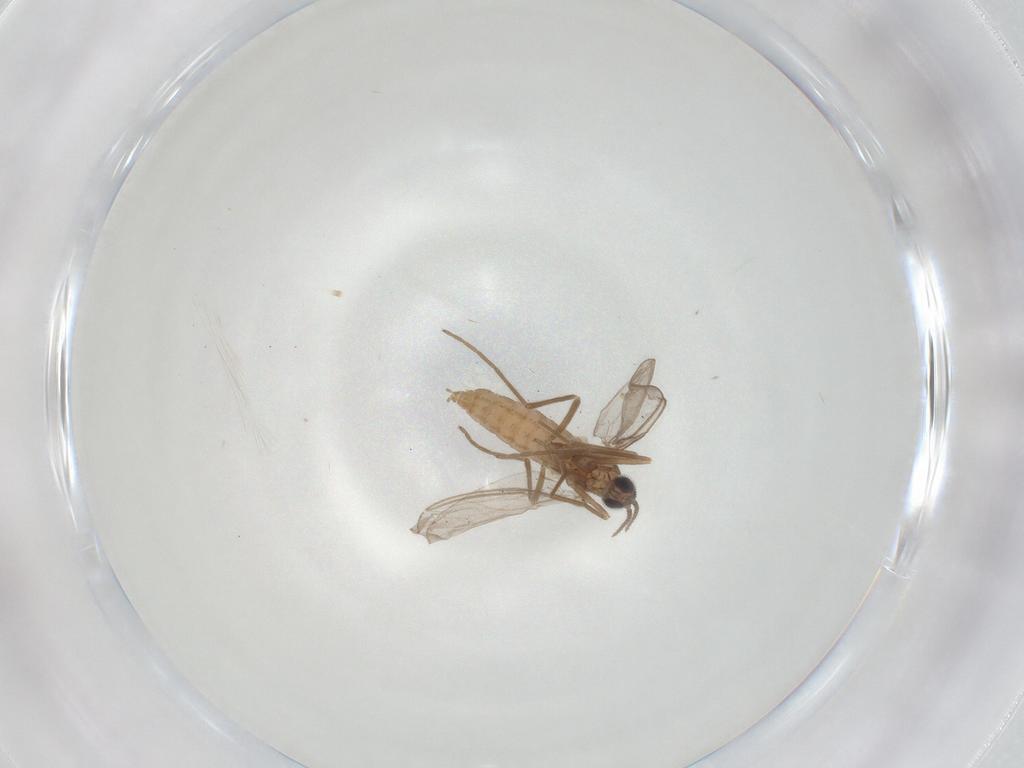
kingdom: Animalia
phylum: Arthropoda
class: Insecta
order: Diptera
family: Cecidomyiidae
